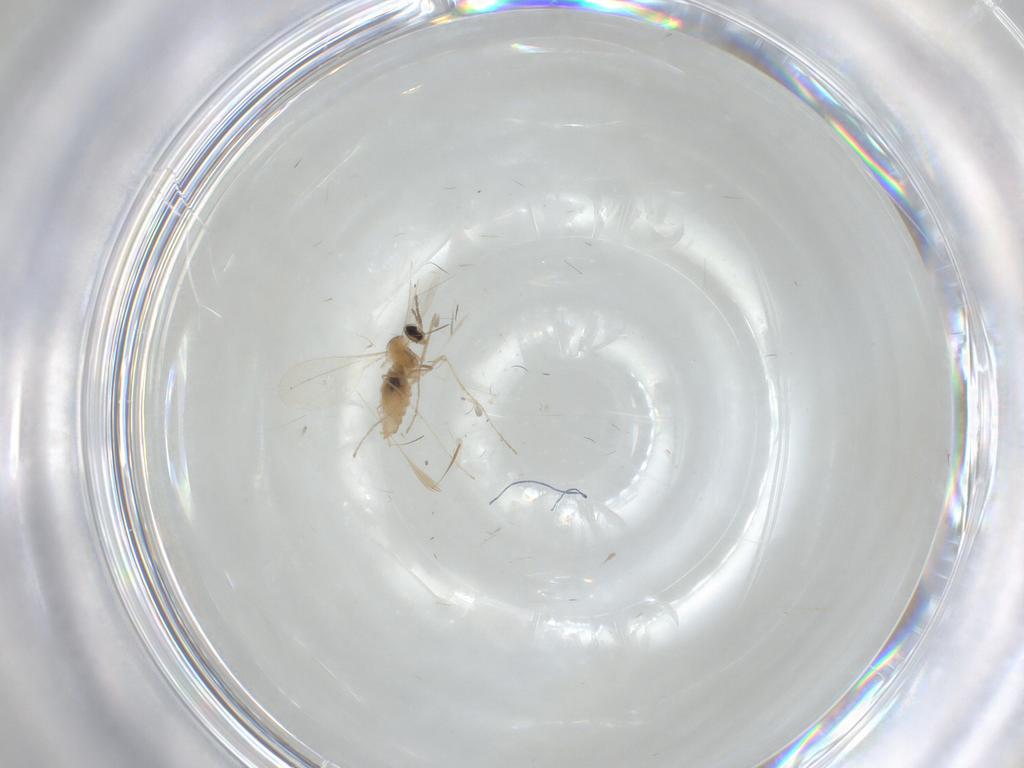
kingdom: Animalia
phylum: Arthropoda
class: Insecta
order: Diptera
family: Cecidomyiidae
